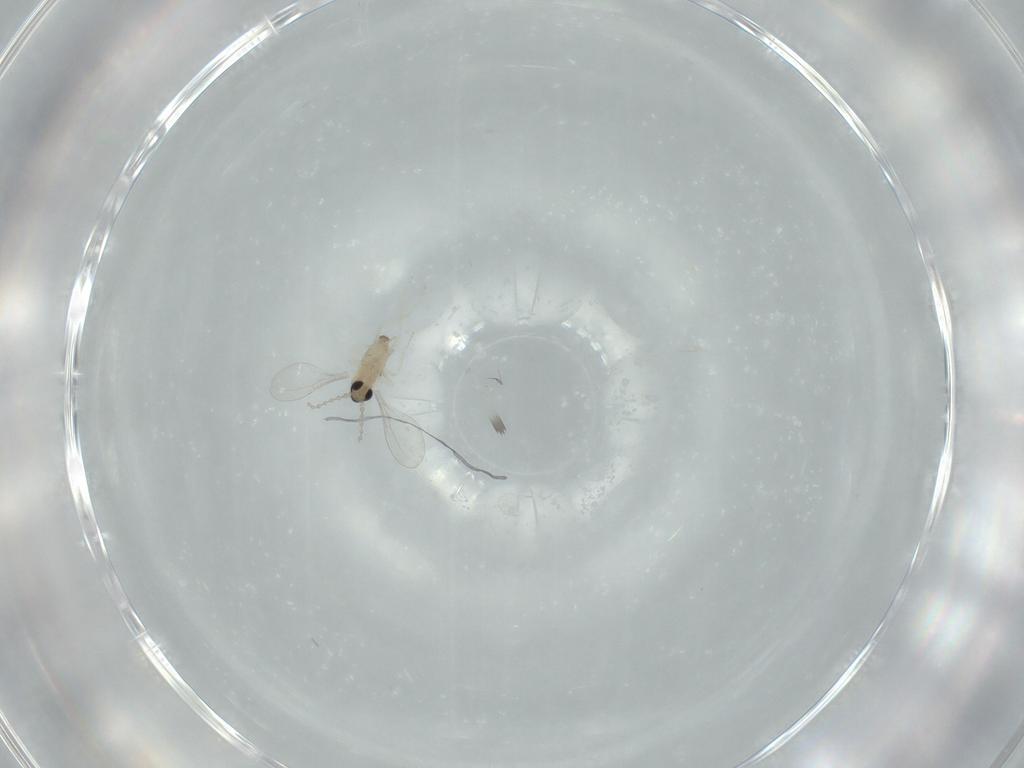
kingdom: Animalia
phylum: Arthropoda
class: Insecta
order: Diptera
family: Cecidomyiidae
